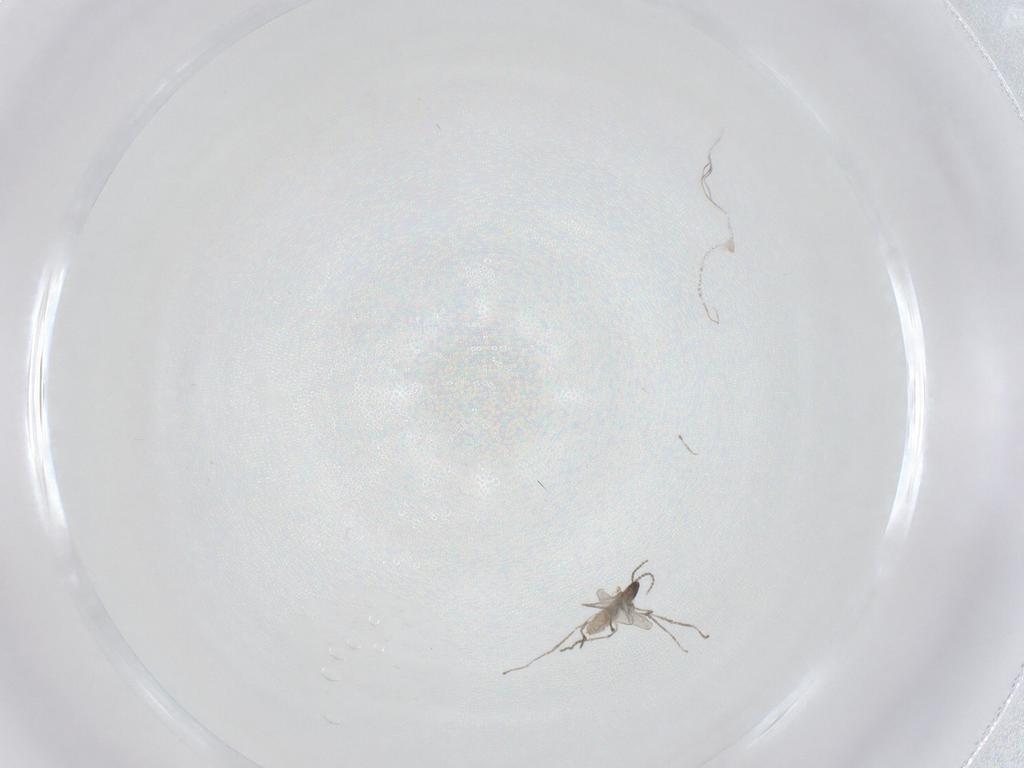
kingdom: Animalia
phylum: Arthropoda
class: Insecta
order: Diptera
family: Cecidomyiidae
